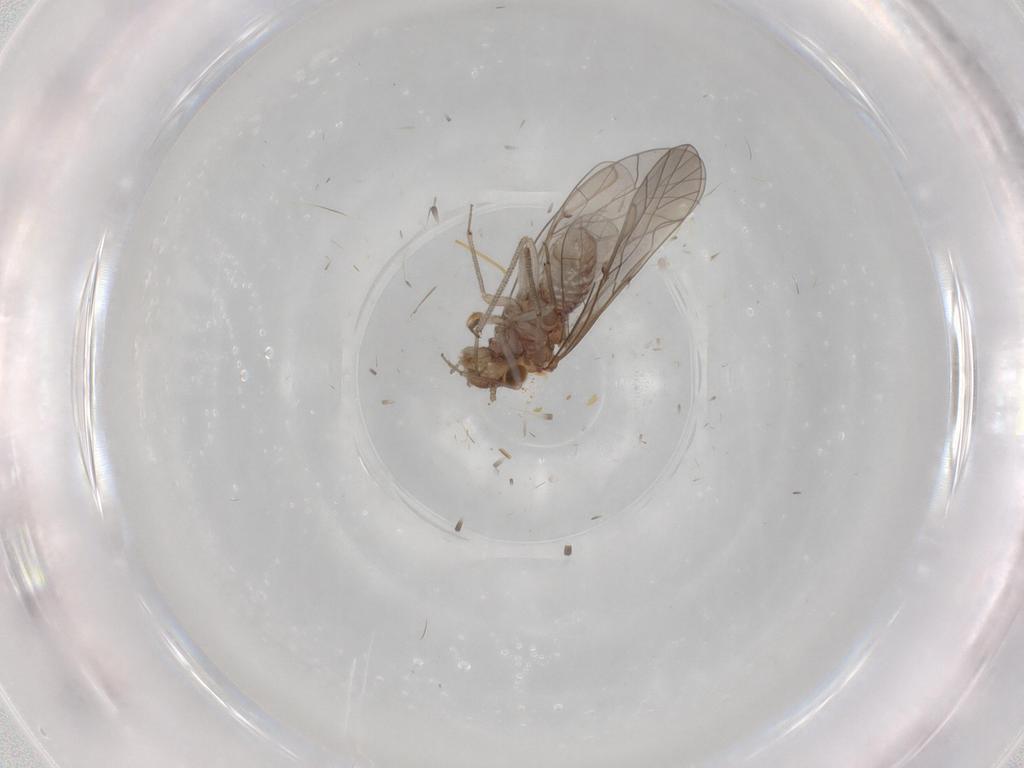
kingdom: Animalia
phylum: Arthropoda
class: Insecta
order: Psocodea
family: Lachesillidae
